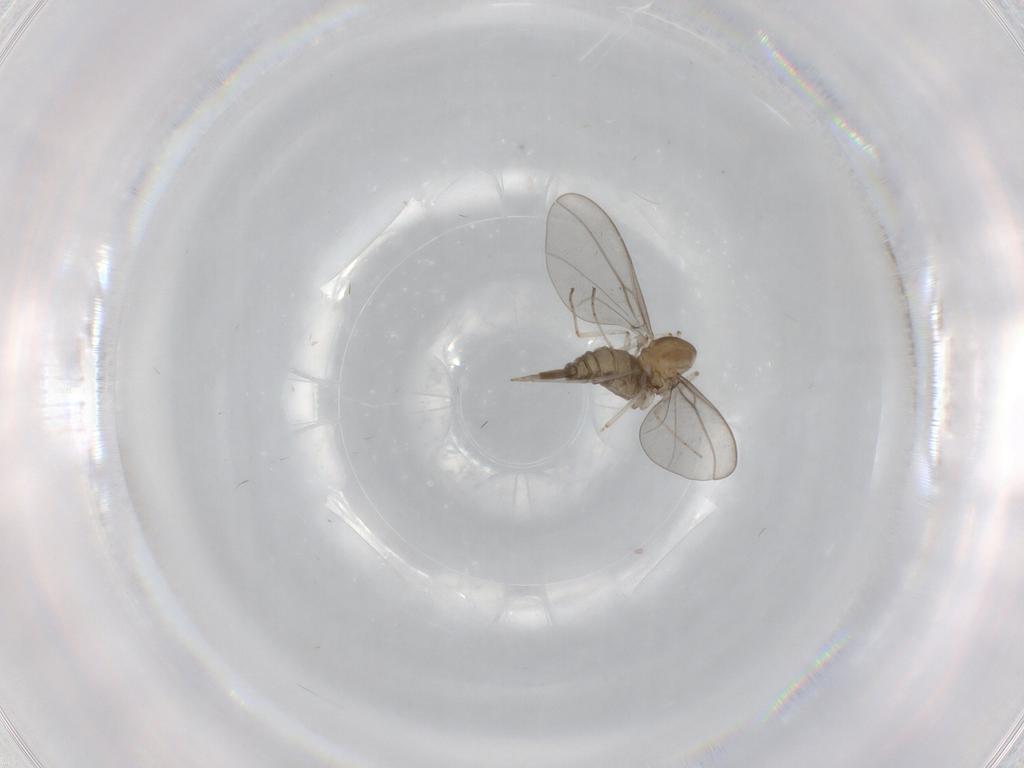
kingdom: Animalia
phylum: Arthropoda
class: Insecta
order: Diptera
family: Cecidomyiidae
